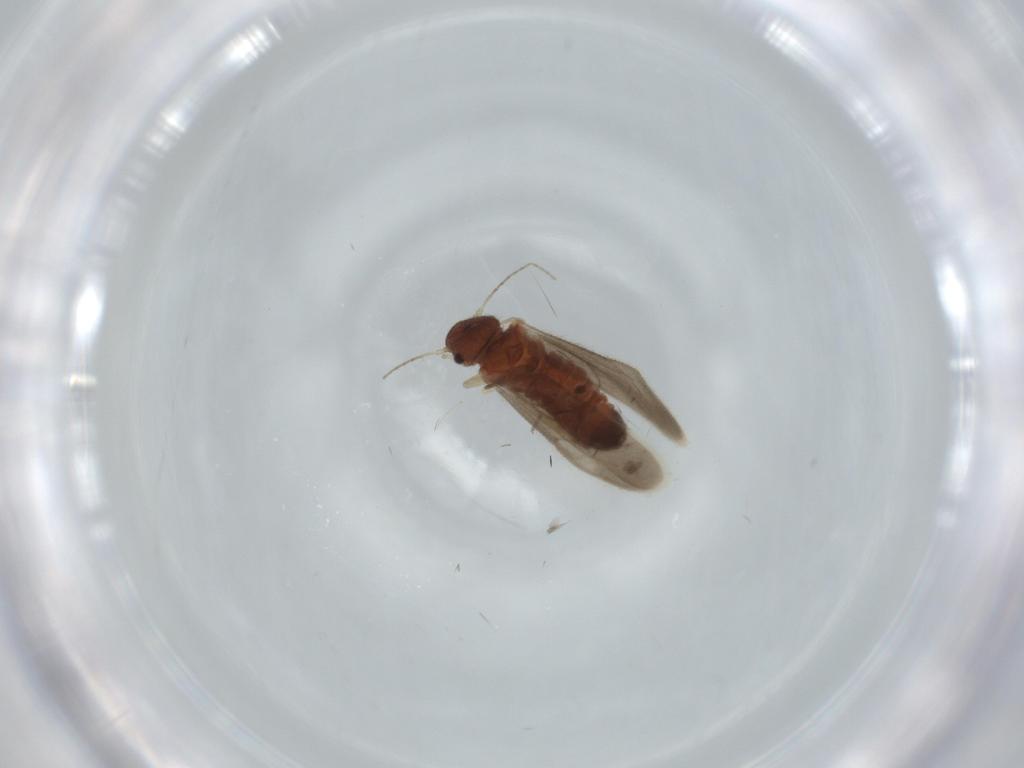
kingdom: Animalia
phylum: Arthropoda
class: Insecta
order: Psocodea
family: Archipsocidae
